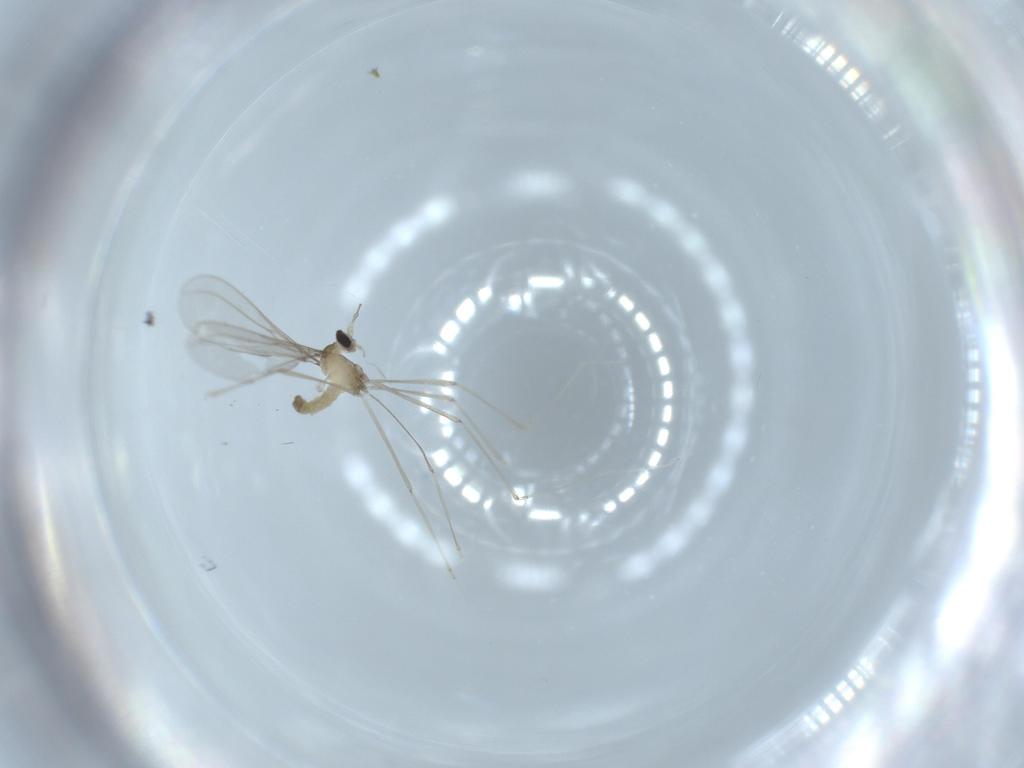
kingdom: Animalia
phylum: Arthropoda
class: Insecta
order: Diptera
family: Cecidomyiidae
